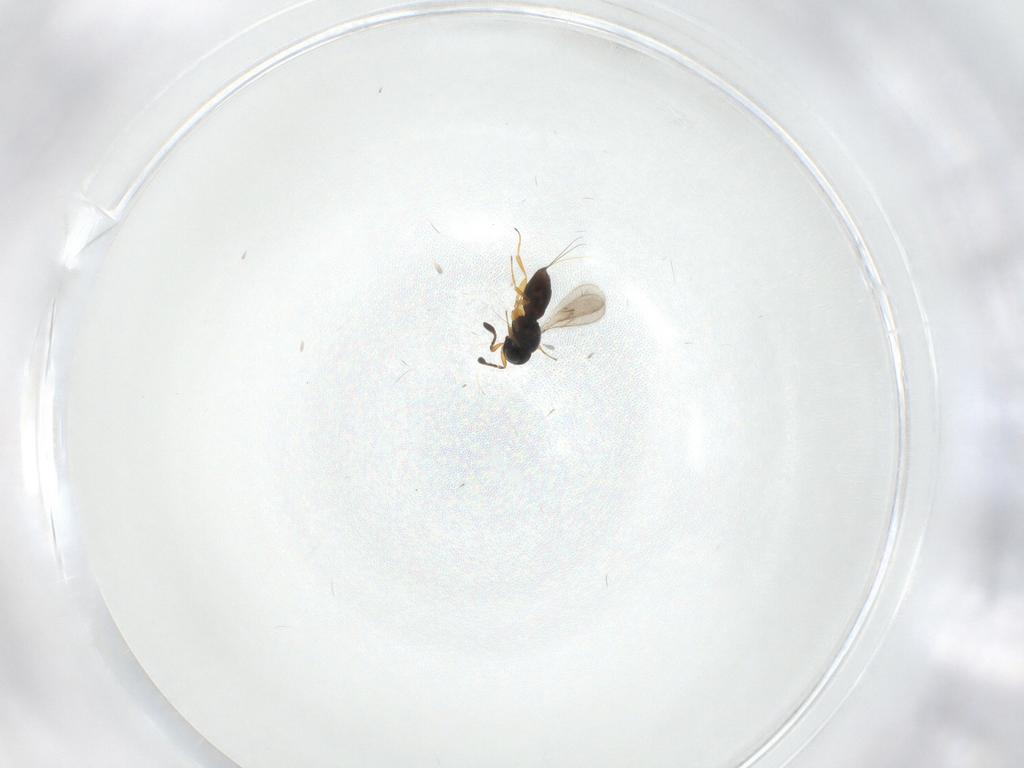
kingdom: Animalia
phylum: Arthropoda
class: Insecta
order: Hymenoptera
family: Scelionidae
